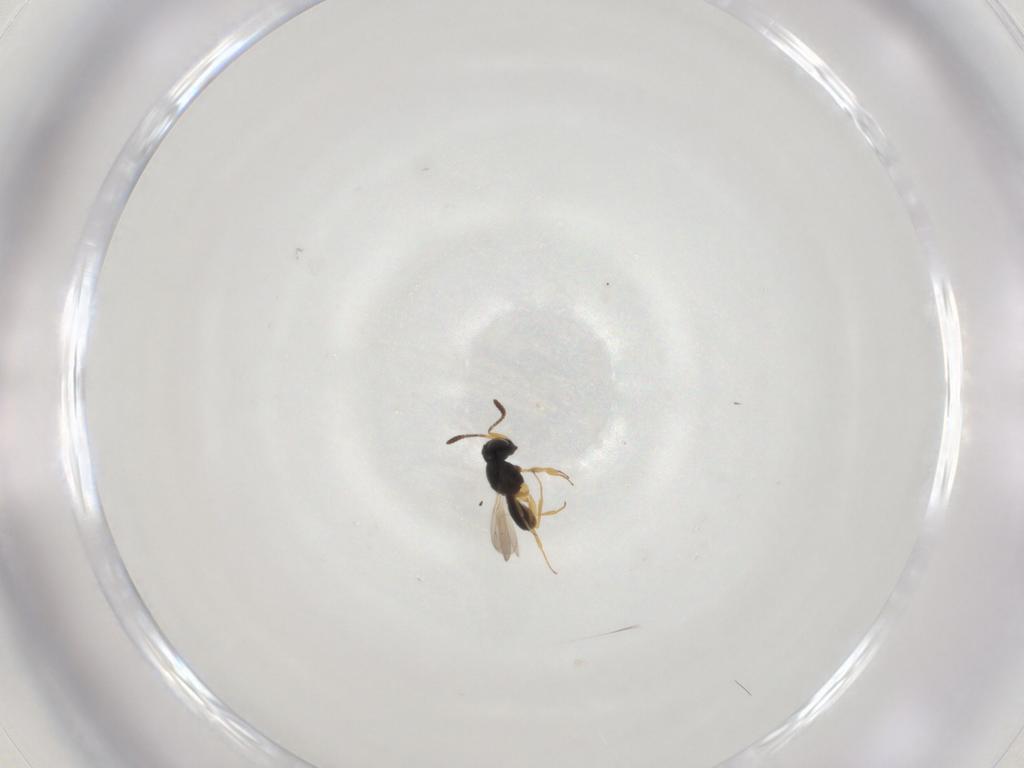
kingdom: Animalia
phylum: Arthropoda
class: Insecta
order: Hymenoptera
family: Scelionidae
